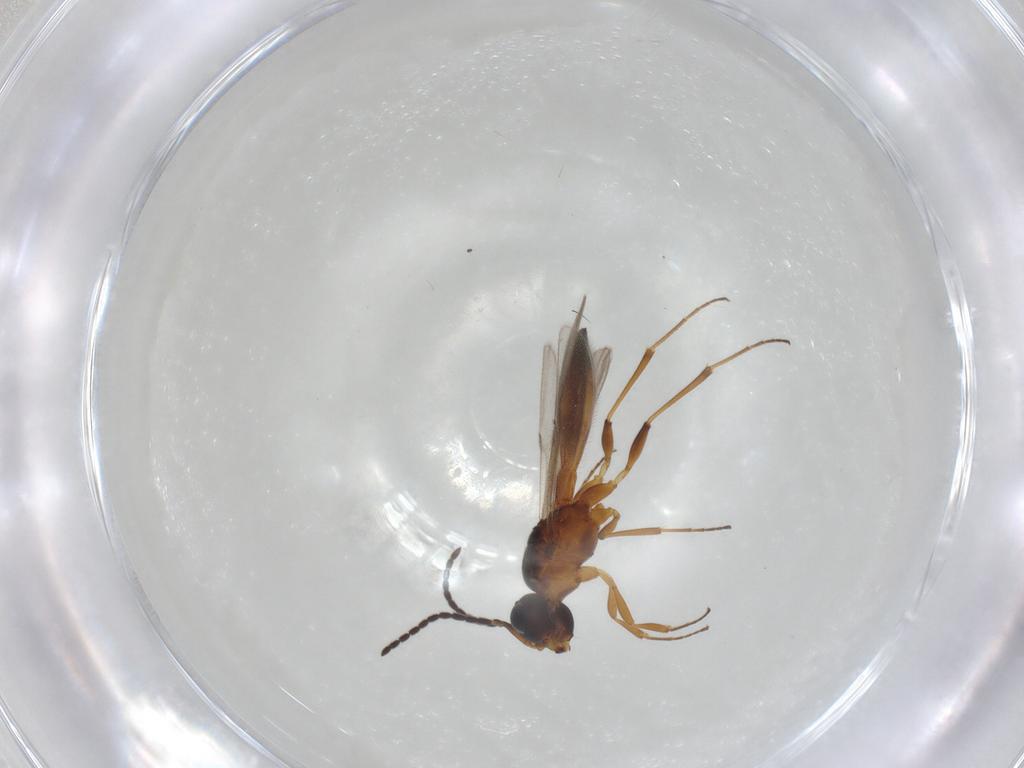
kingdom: Animalia
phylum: Arthropoda
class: Insecta
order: Hymenoptera
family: Scelionidae
